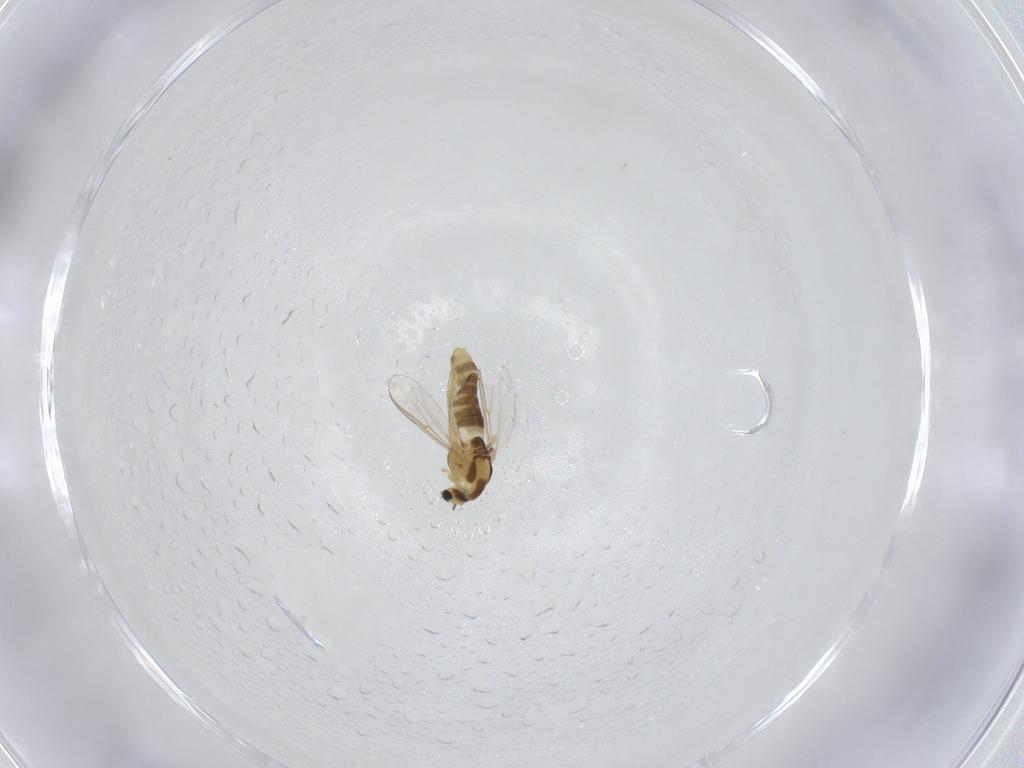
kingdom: Animalia
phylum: Arthropoda
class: Insecta
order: Diptera
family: Chironomidae
